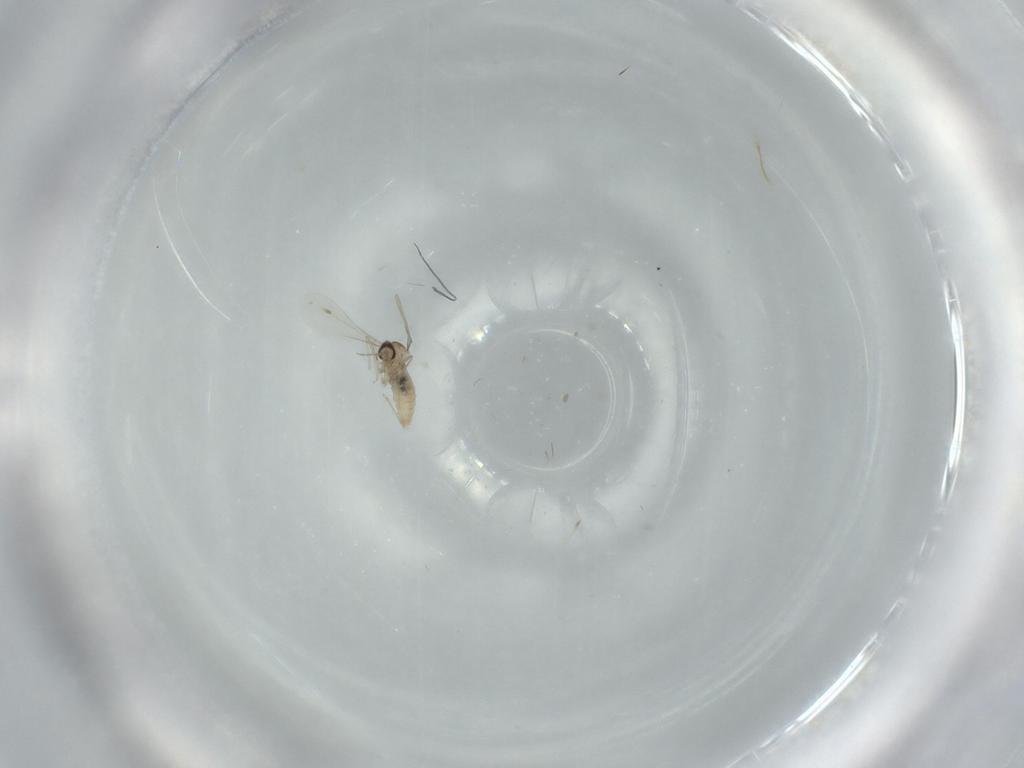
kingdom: Animalia
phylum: Arthropoda
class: Insecta
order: Diptera
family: Cecidomyiidae
